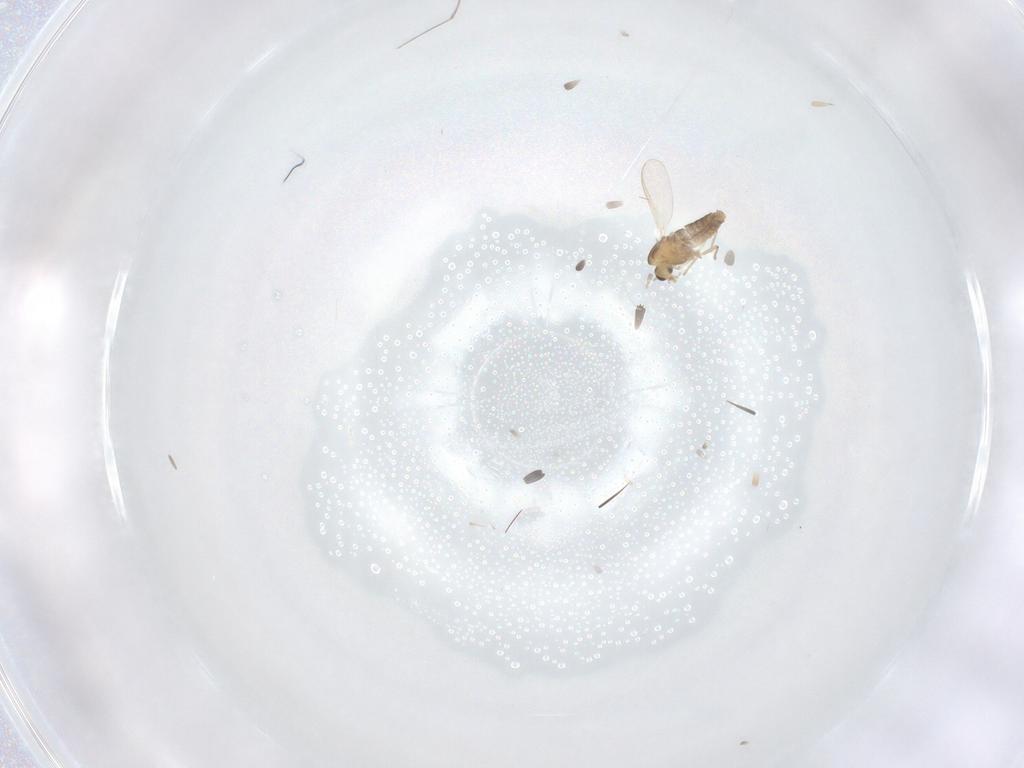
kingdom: Animalia
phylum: Arthropoda
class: Insecta
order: Diptera
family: Chironomidae
